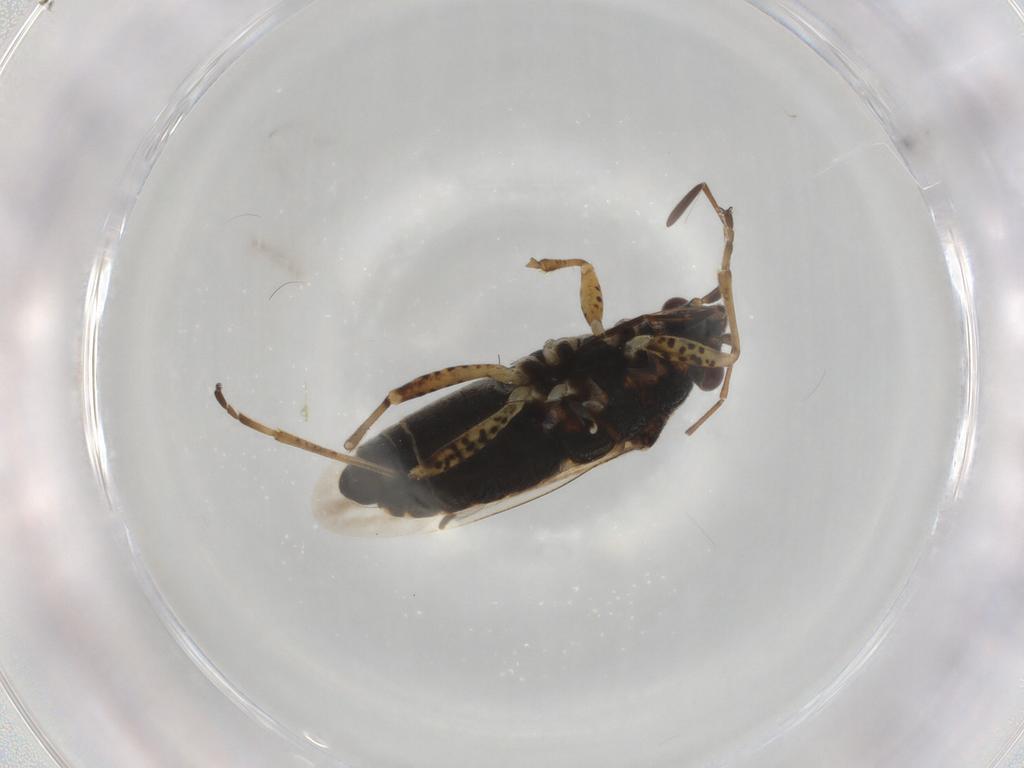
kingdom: Animalia
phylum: Arthropoda
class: Insecta
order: Hemiptera
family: Lygaeidae
